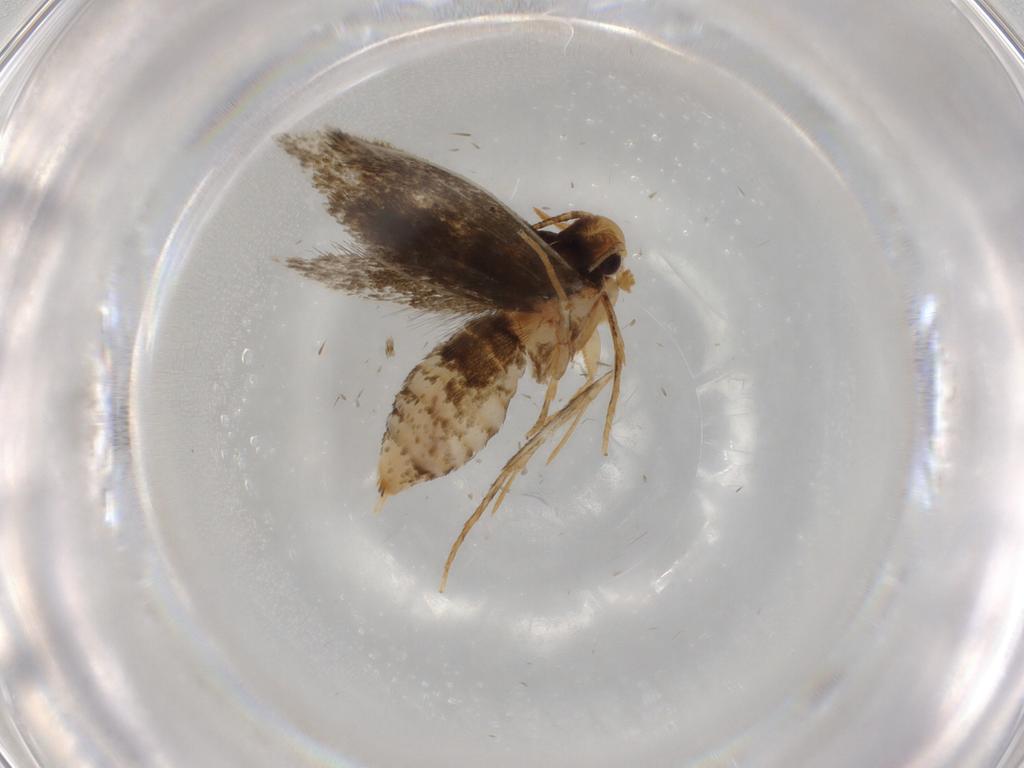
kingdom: Animalia
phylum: Arthropoda
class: Insecta
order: Lepidoptera
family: Tineidae
